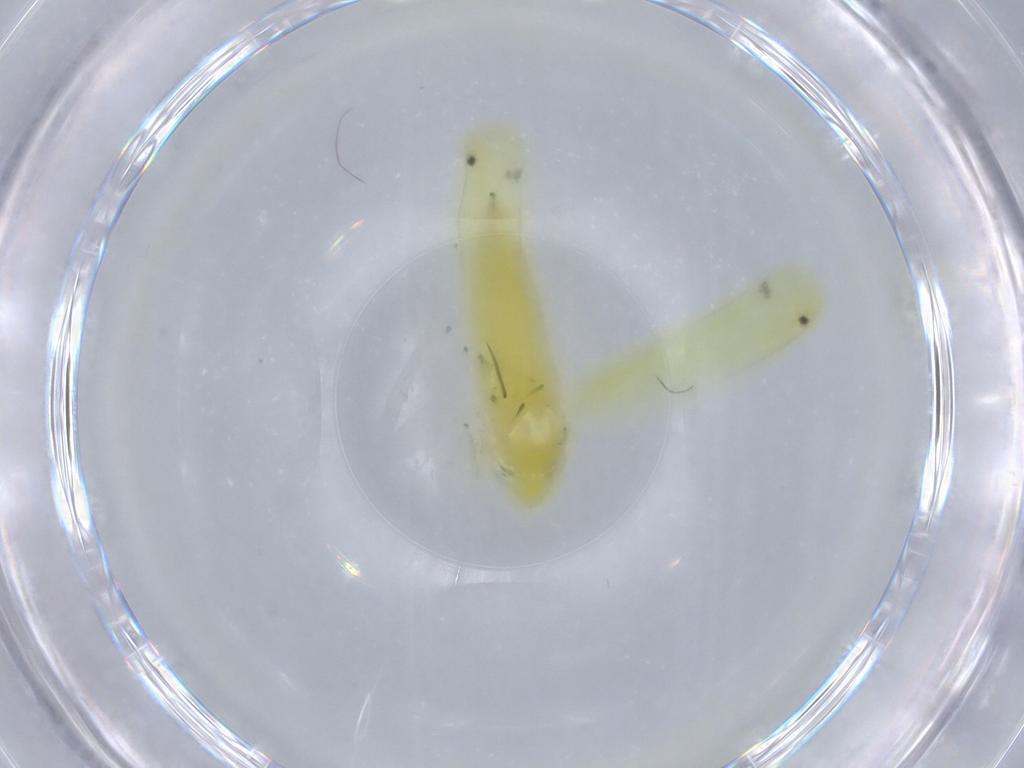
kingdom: Animalia
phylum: Arthropoda
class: Insecta
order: Hemiptera
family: Cicadellidae
